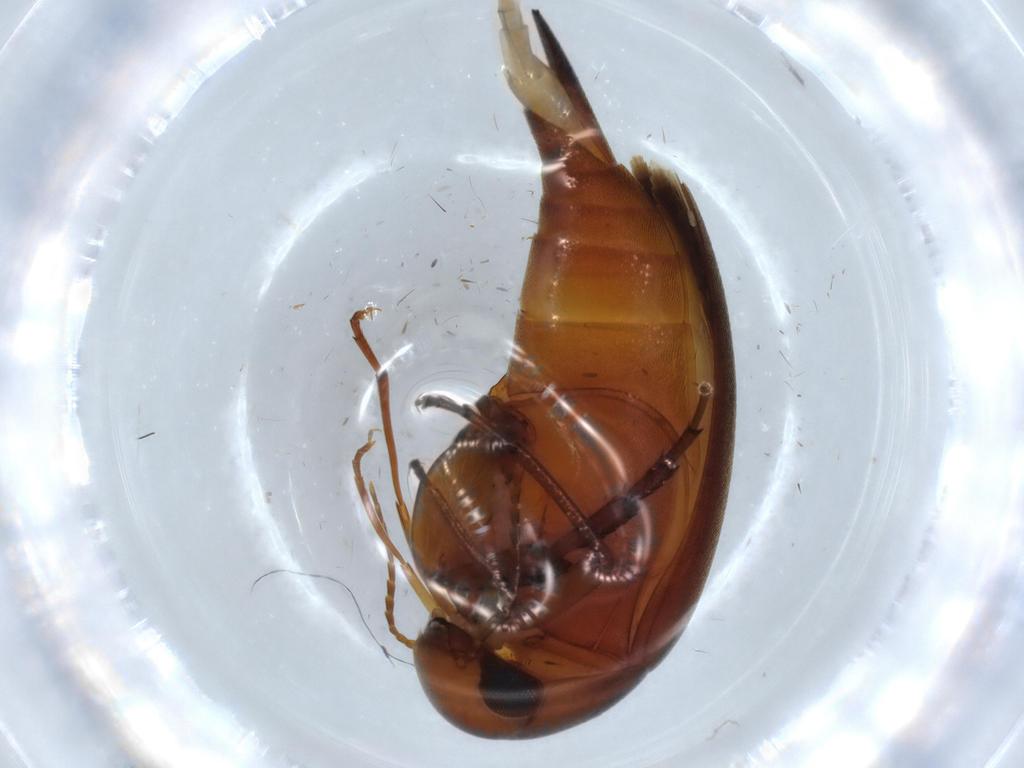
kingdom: Animalia
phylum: Arthropoda
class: Insecta
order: Coleoptera
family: Mordellidae
